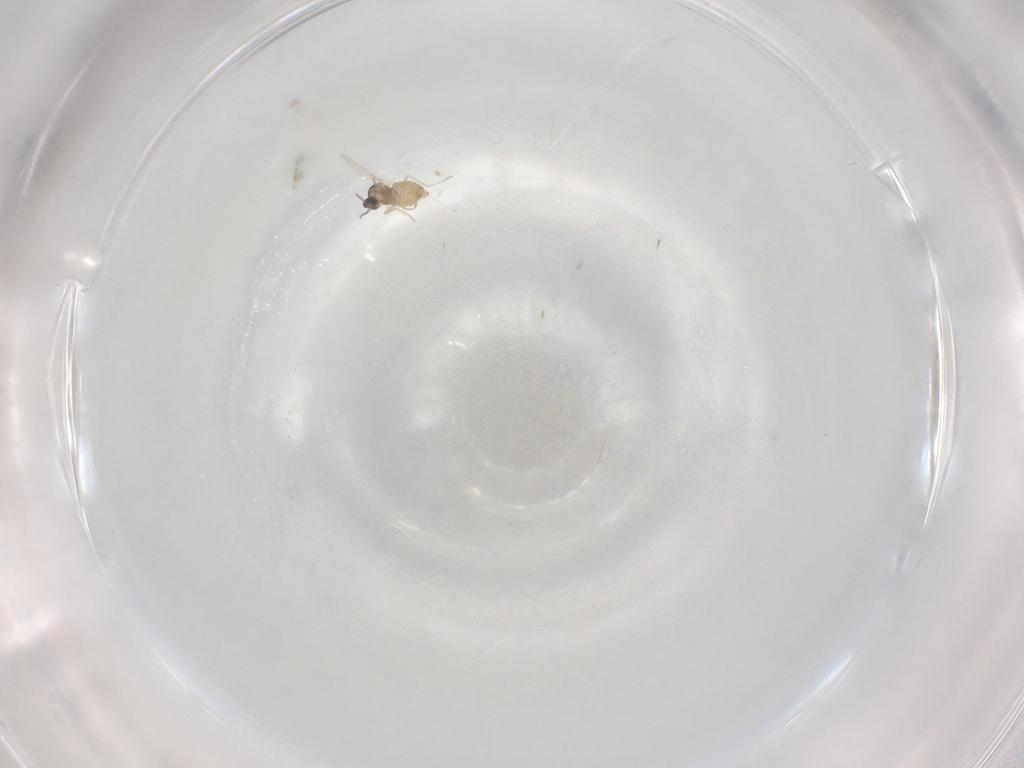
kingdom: Animalia
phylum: Arthropoda
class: Insecta
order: Diptera
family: Cecidomyiidae
